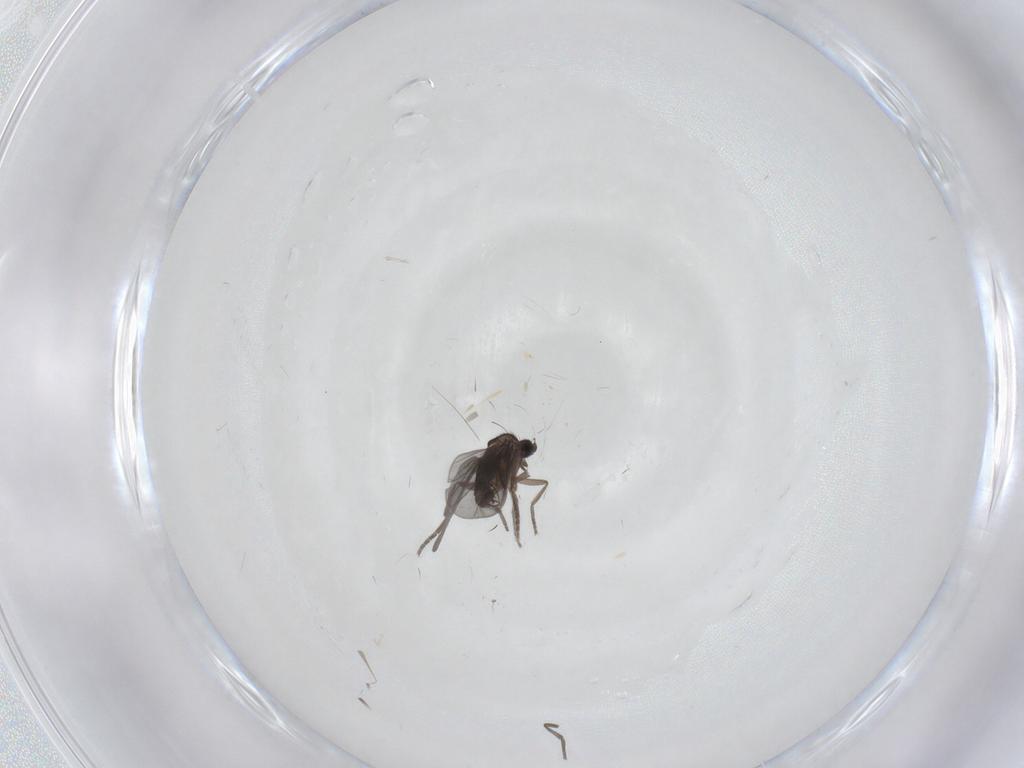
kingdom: Animalia
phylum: Arthropoda
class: Insecta
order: Diptera
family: Phoridae
